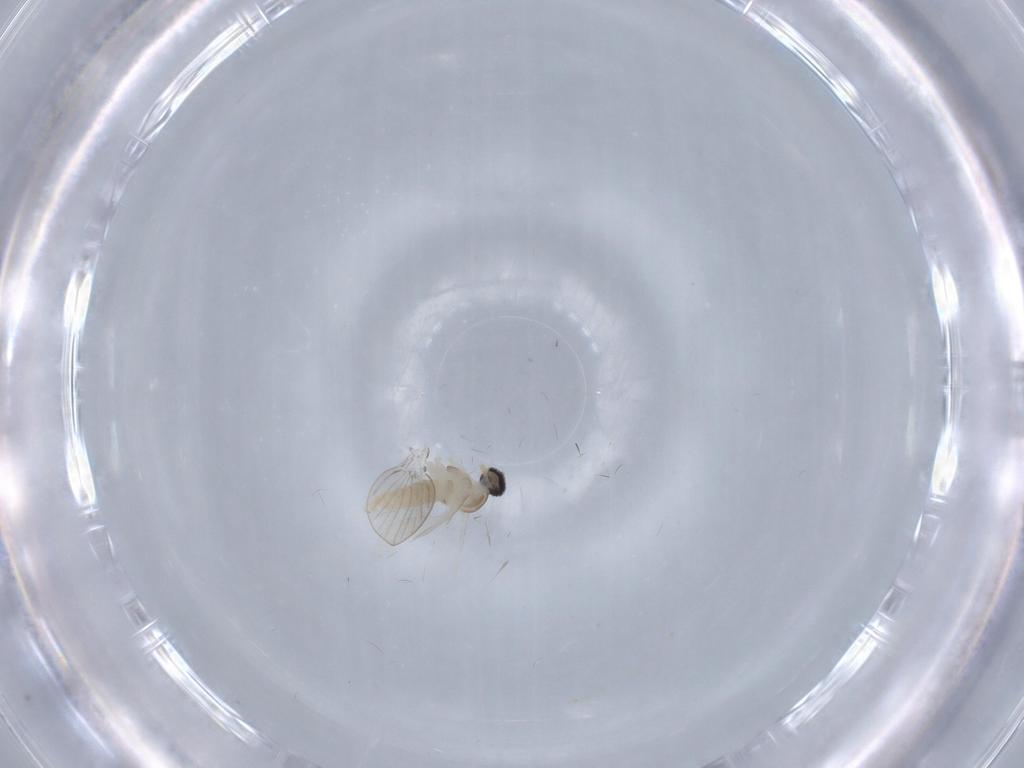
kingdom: Animalia
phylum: Arthropoda
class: Insecta
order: Diptera
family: Cecidomyiidae
